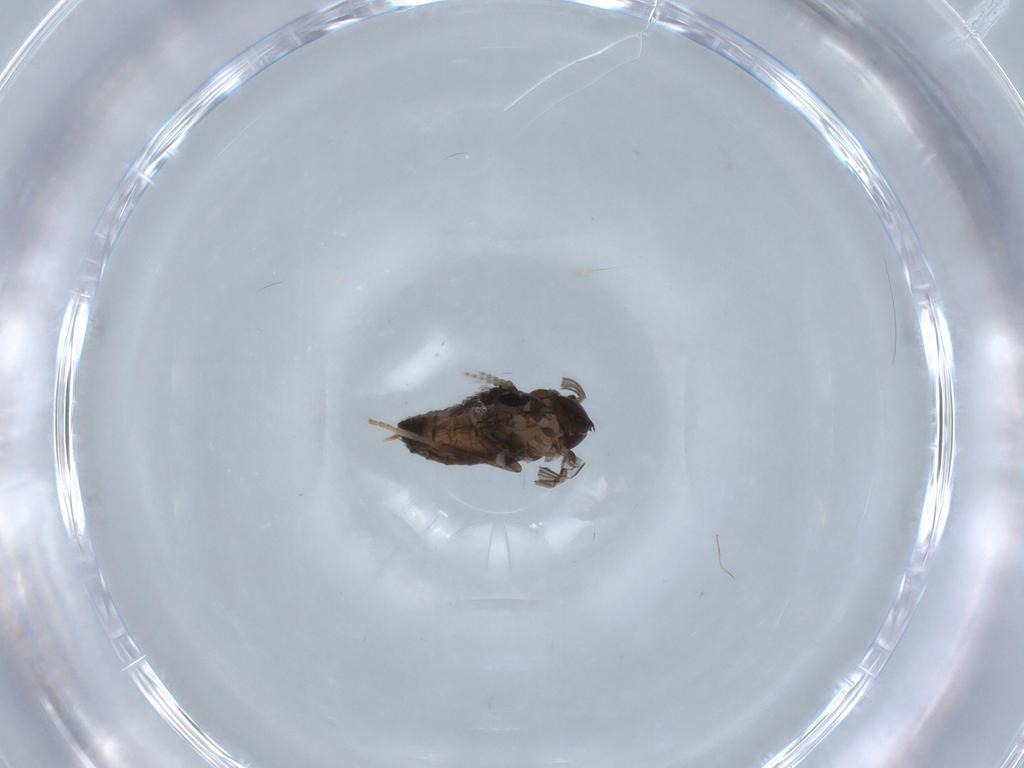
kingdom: Animalia
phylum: Arthropoda
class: Insecta
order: Diptera
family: Psychodidae
